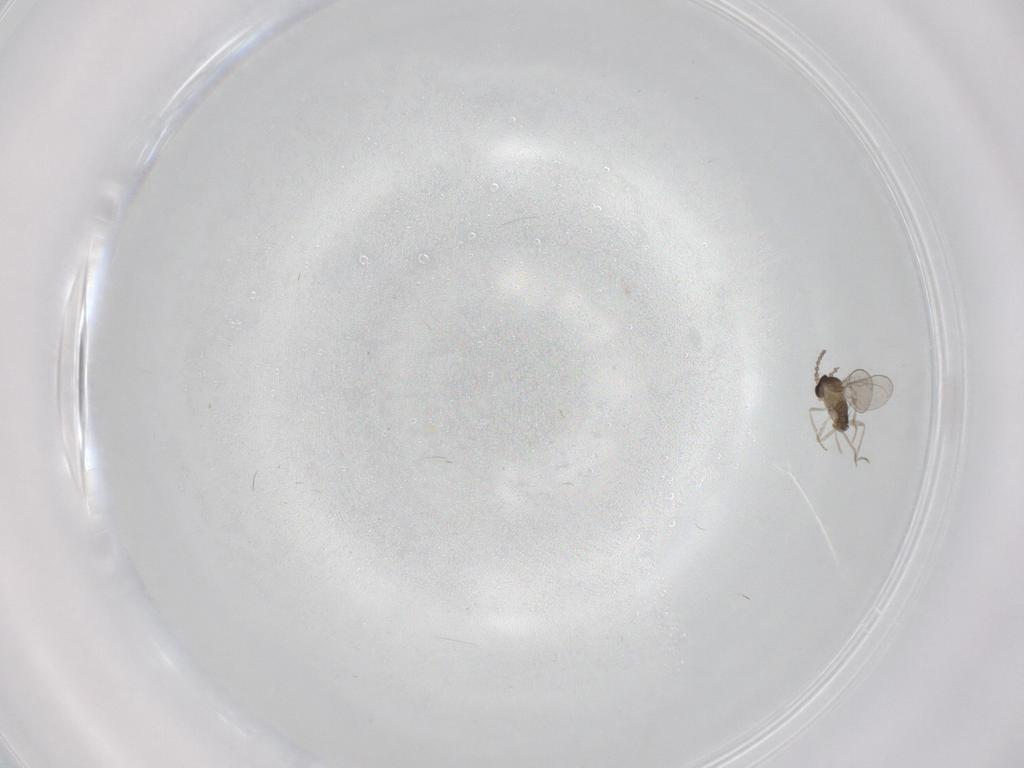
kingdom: Animalia
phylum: Arthropoda
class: Insecta
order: Diptera
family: Cecidomyiidae
